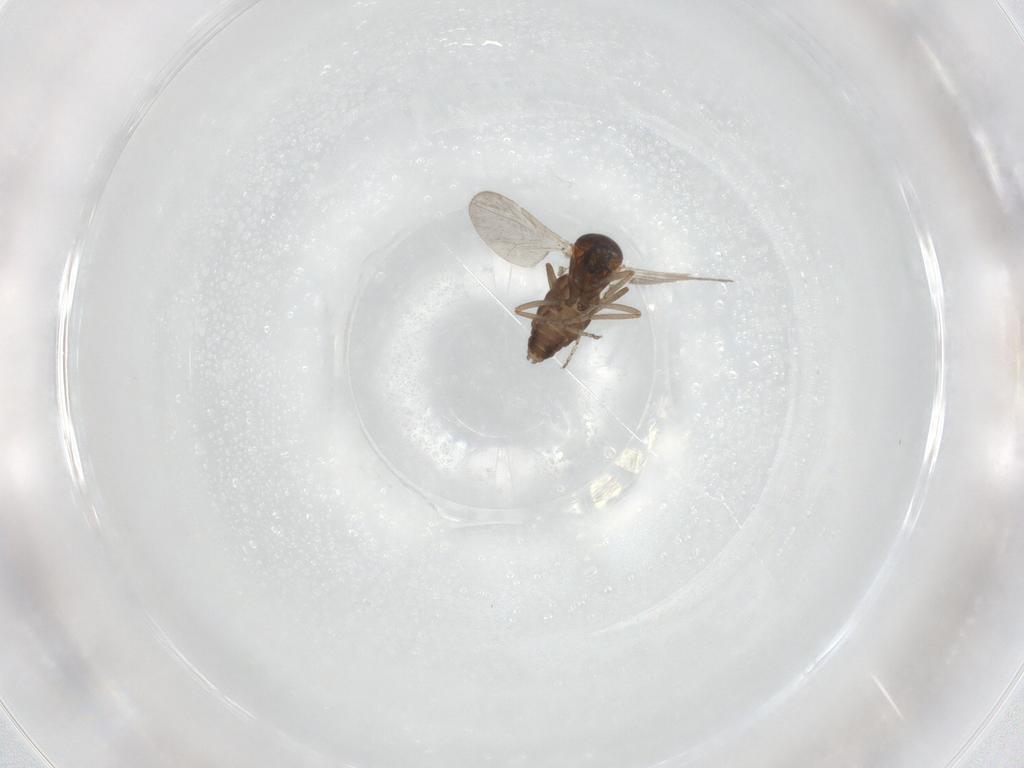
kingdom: Animalia
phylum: Arthropoda
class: Insecta
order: Diptera
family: Ceratopogonidae
